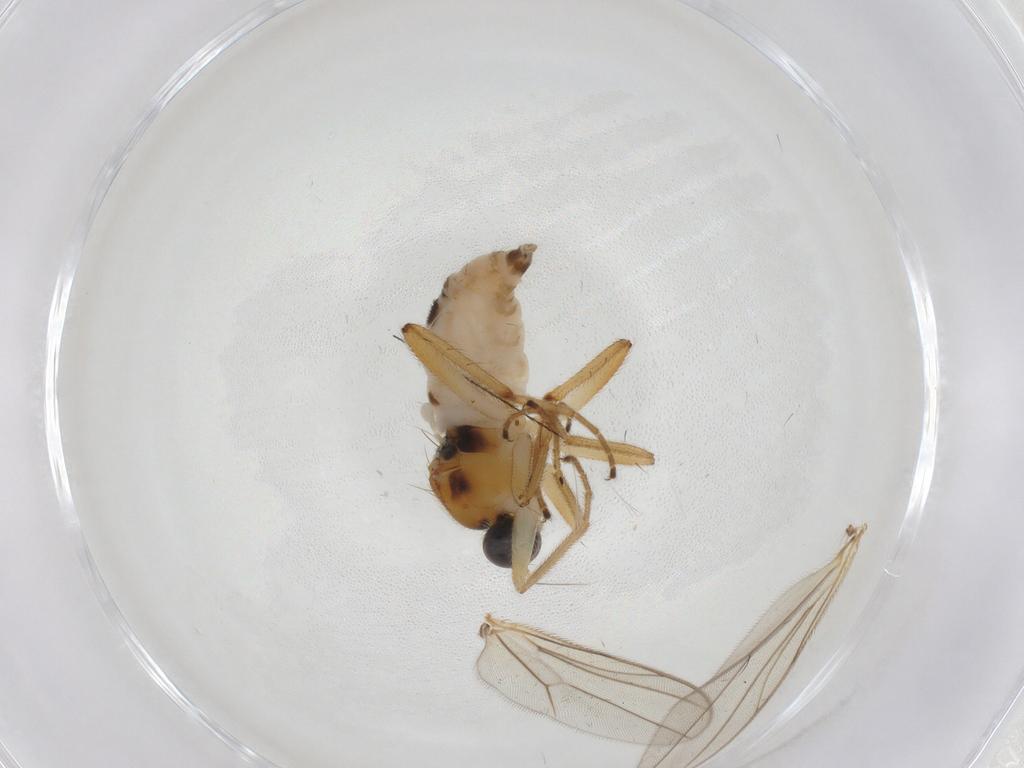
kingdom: Animalia
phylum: Arthropoda
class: Insecta
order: Diptera
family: Hybotidae
